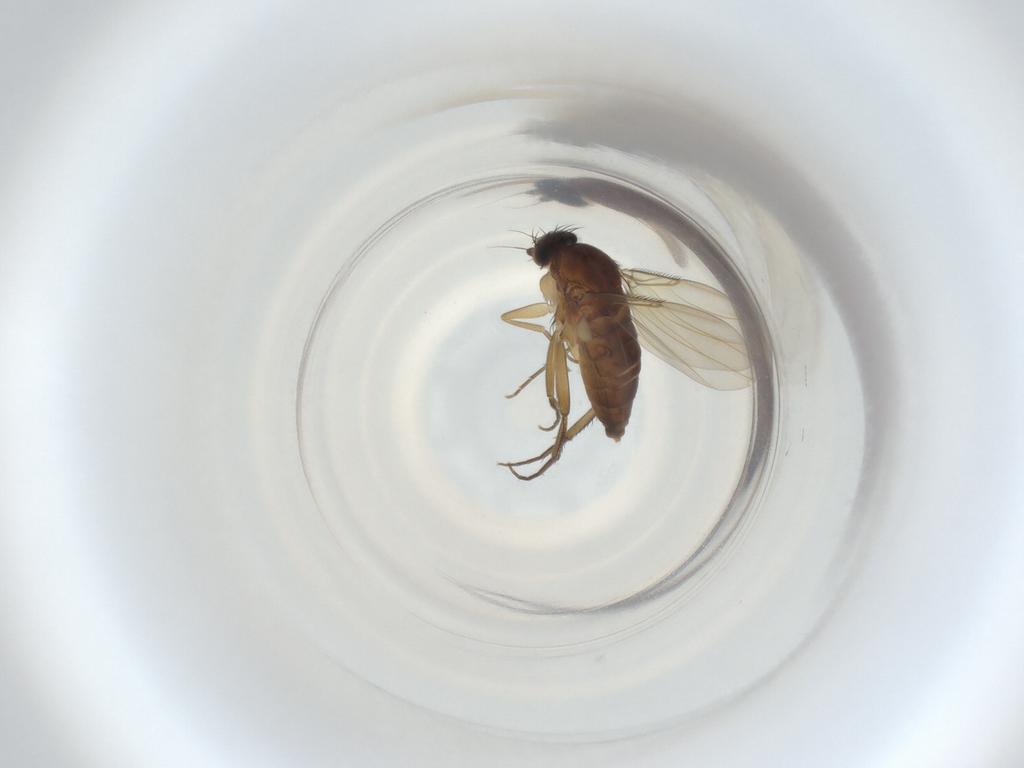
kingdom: Animalia
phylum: Arthropoda
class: Insecta
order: Diptera
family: Phoridae
